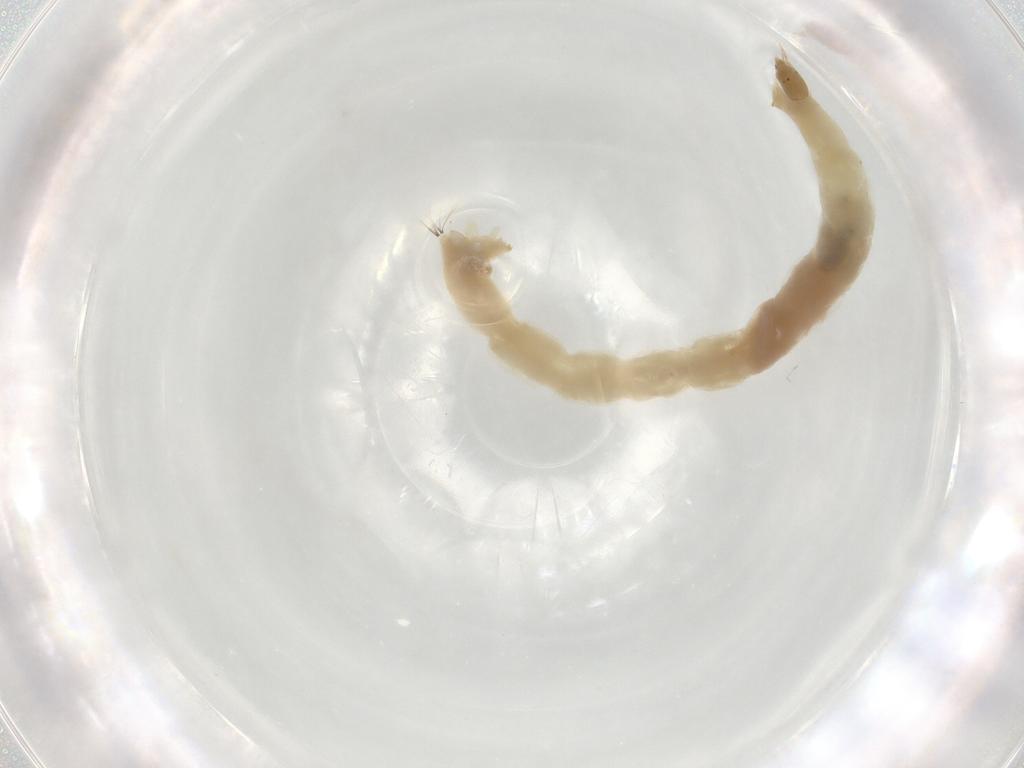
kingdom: Animalia
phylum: Arthropoda
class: Insecta
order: Diptera
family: Chironomidae
